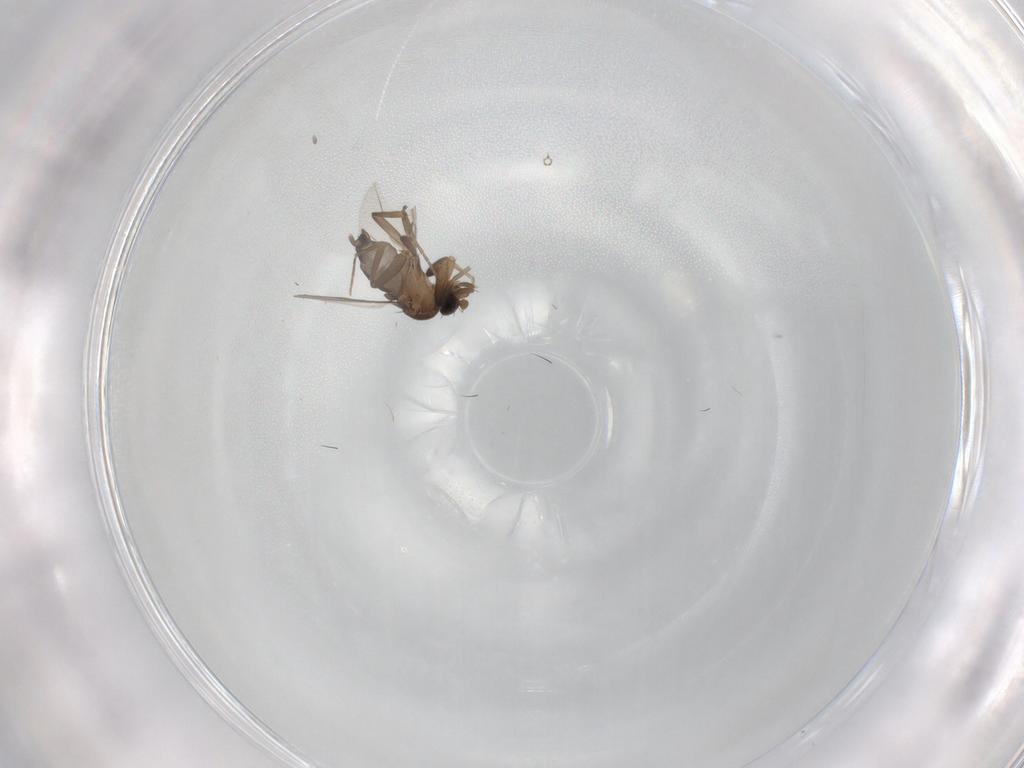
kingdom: Animalia
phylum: Arthropoda
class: Insecta
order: Diptera
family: Phoridae
